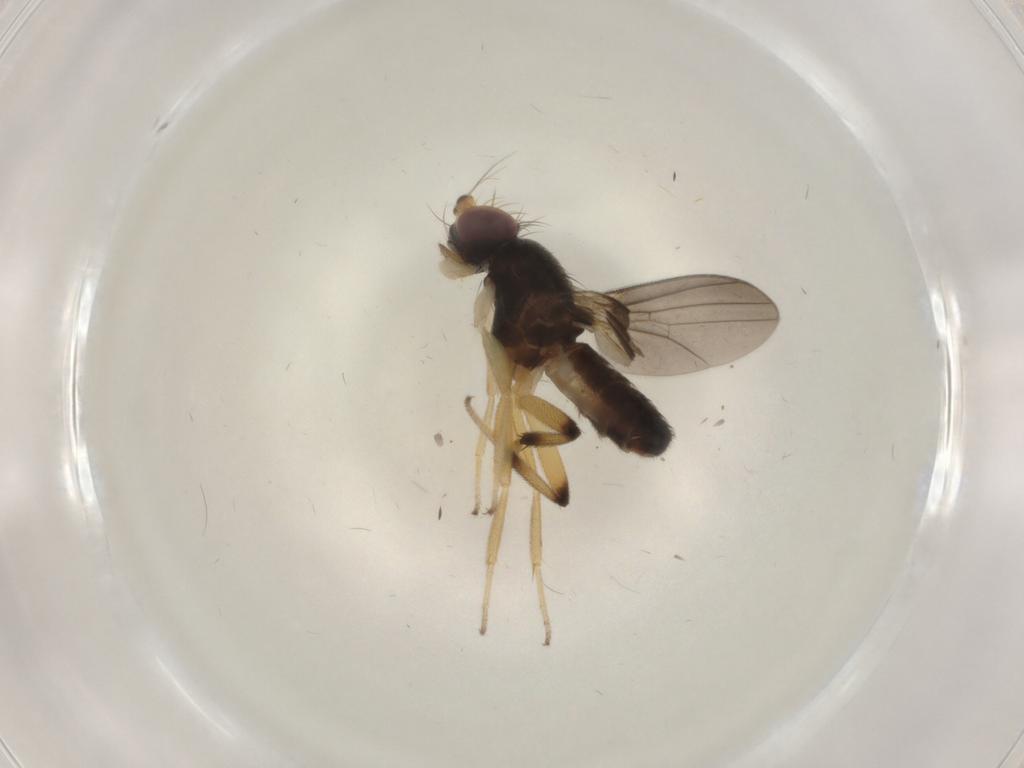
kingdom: Animalia
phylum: Arthropoda
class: Insecta
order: Diptera
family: Clusiidae
